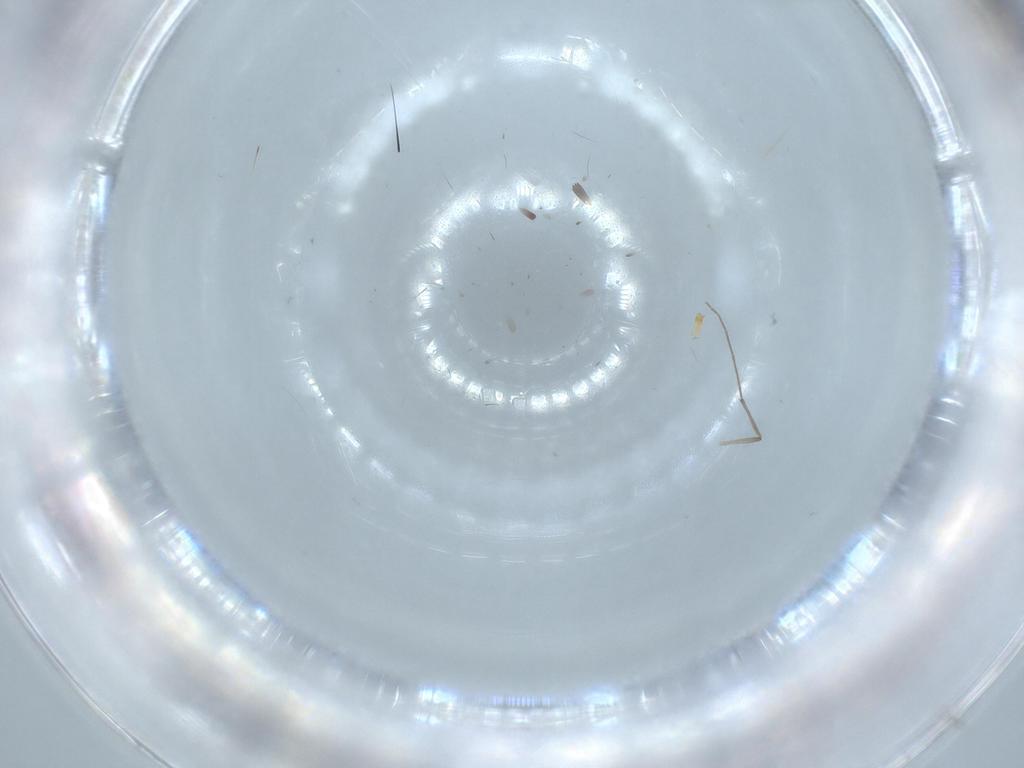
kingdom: Animalia
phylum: Arthropoda
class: Insecta
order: Diptera
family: Phoridae
